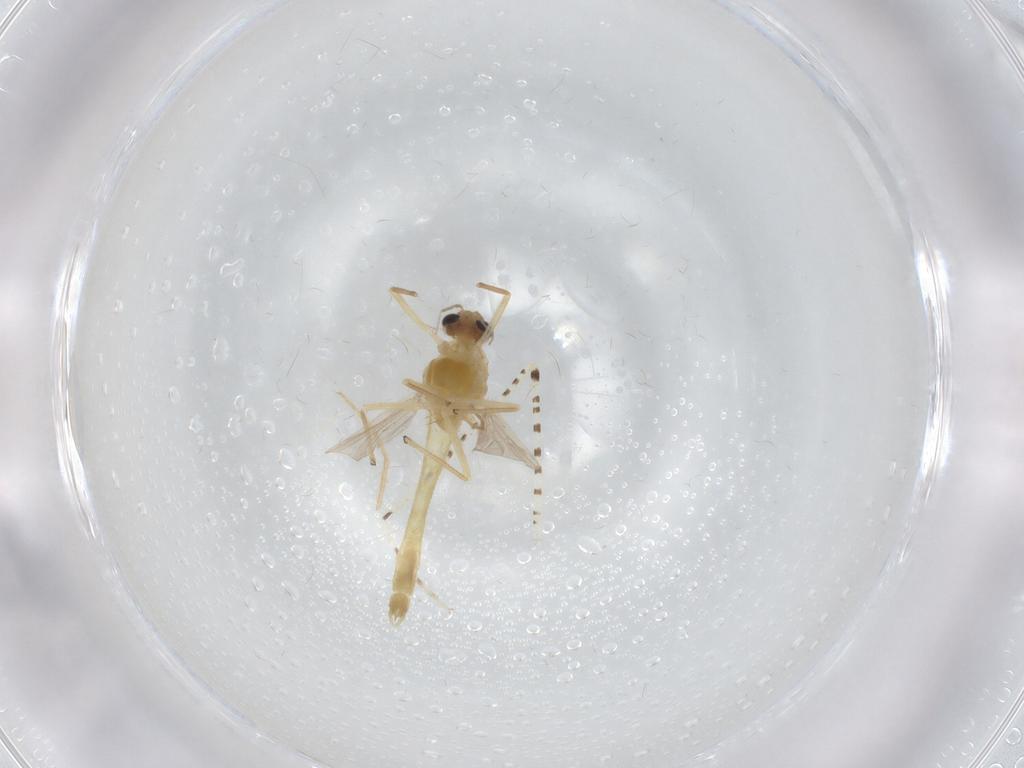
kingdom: Animalia
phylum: Arthropoda
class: Insecta
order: Diptera
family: Chironomidae
